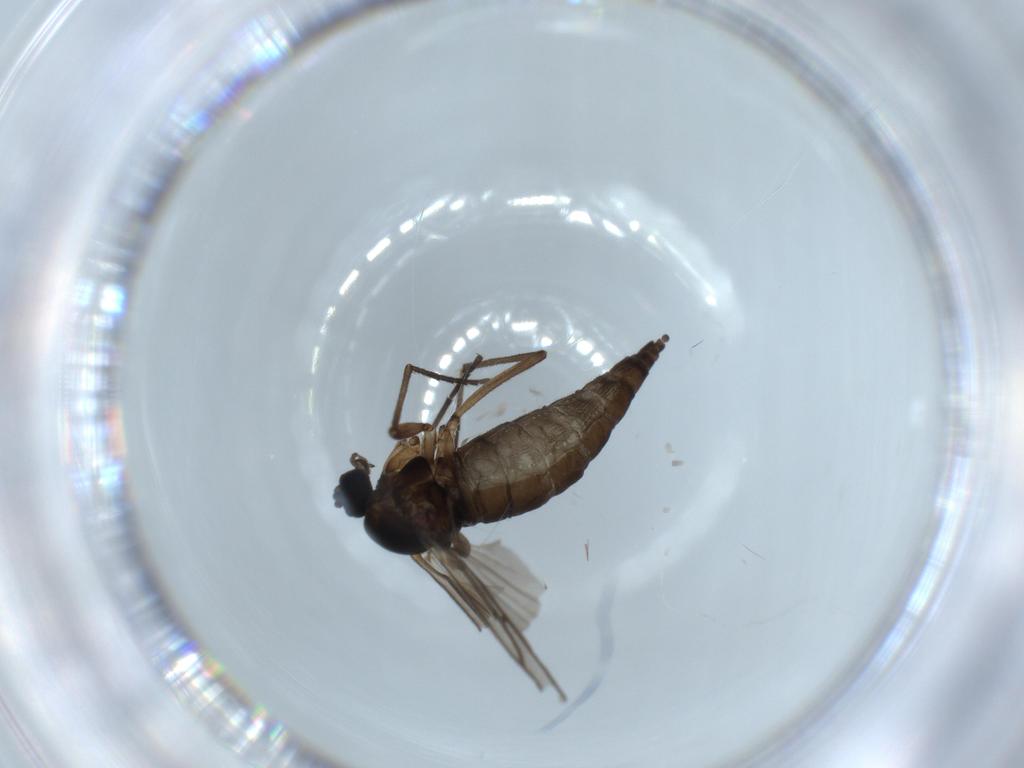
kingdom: Animalia
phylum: Arthropoda
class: Insecta
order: Diptera
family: Sciaridae
